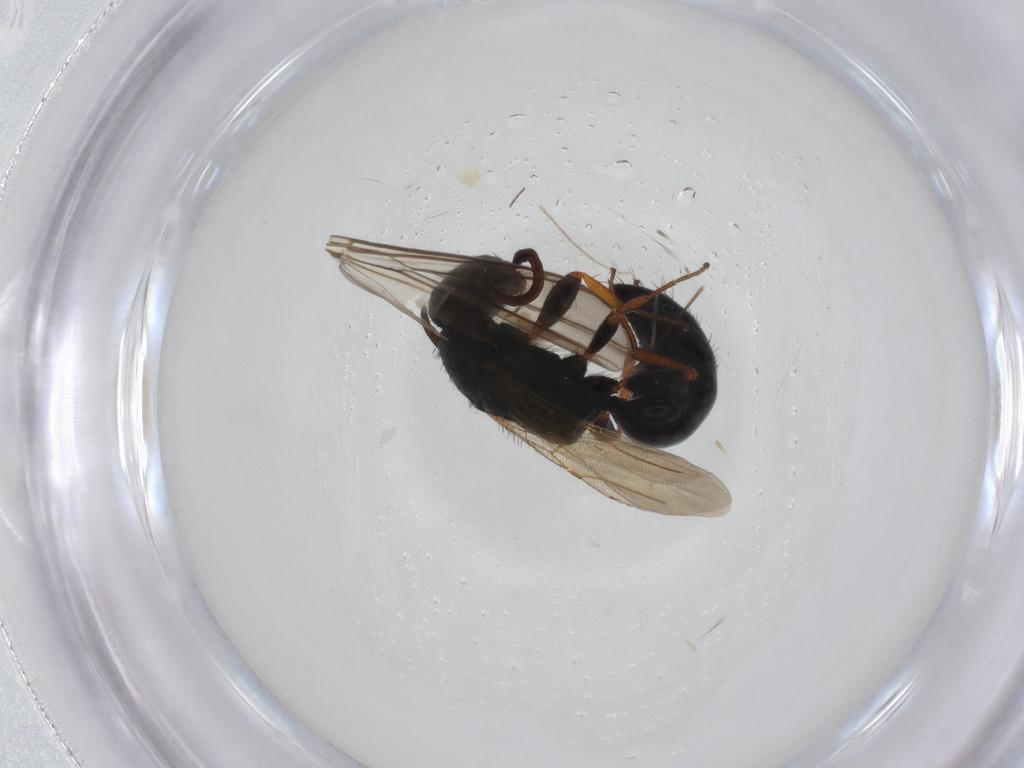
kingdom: Animalia
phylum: Arthropoda
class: Insecta
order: Hymenoptera
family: Bethylidae
